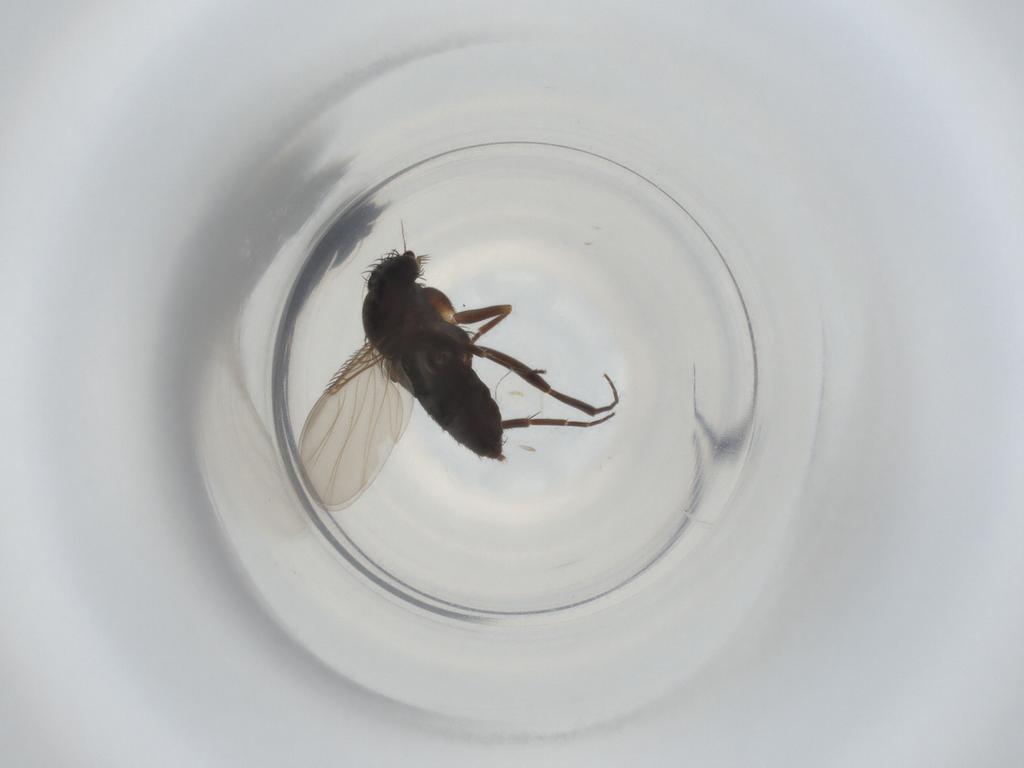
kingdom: Animalia
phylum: Arthropoda
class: Insecta
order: Diptera
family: Phoridae
